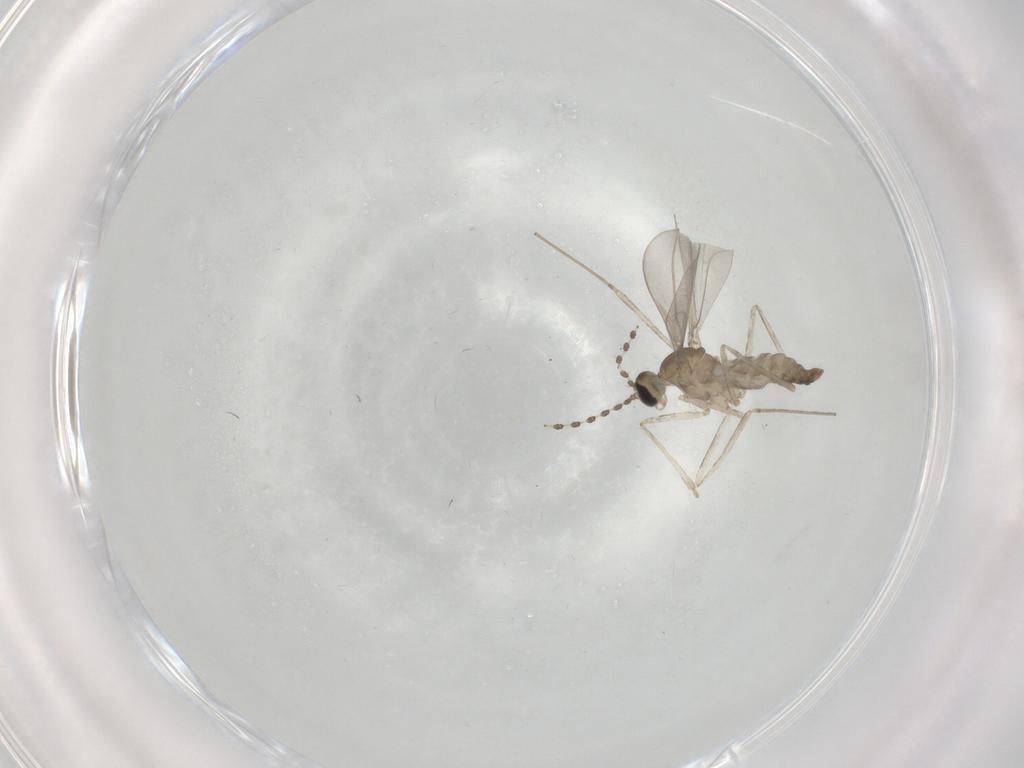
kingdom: Animalia
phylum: Arthropoda
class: Insecta
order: Diptera
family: Cecidomyiidae
